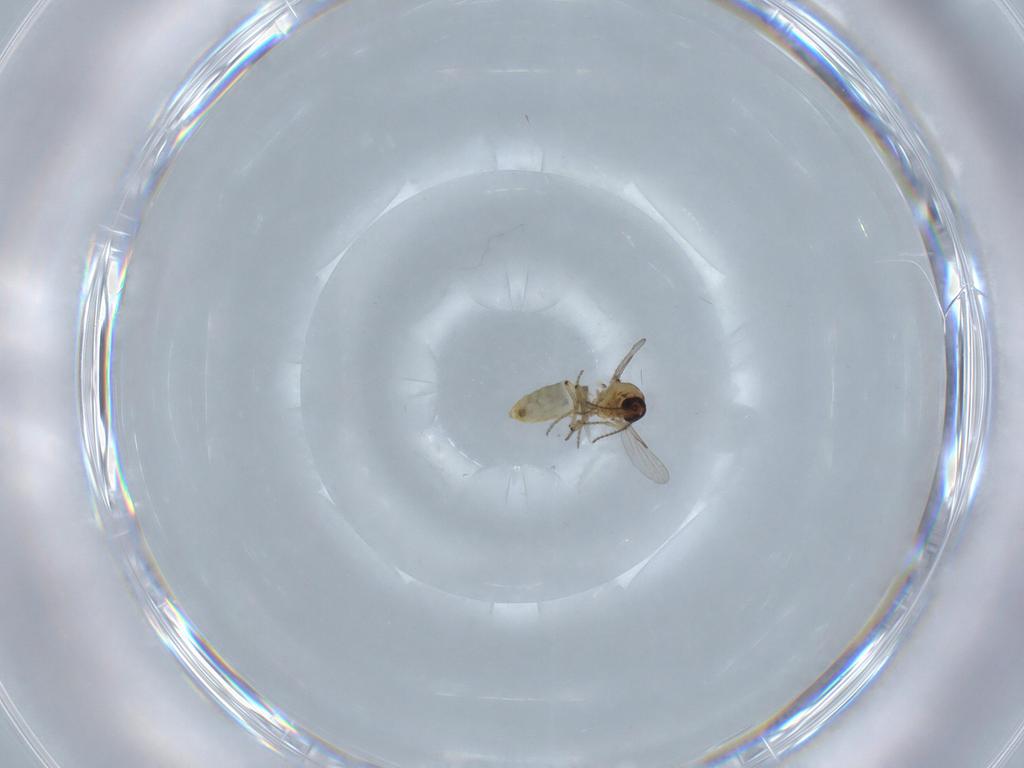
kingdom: Animalia
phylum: Arthropoda
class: Insecta
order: Diptera
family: Ceratopogonidae
